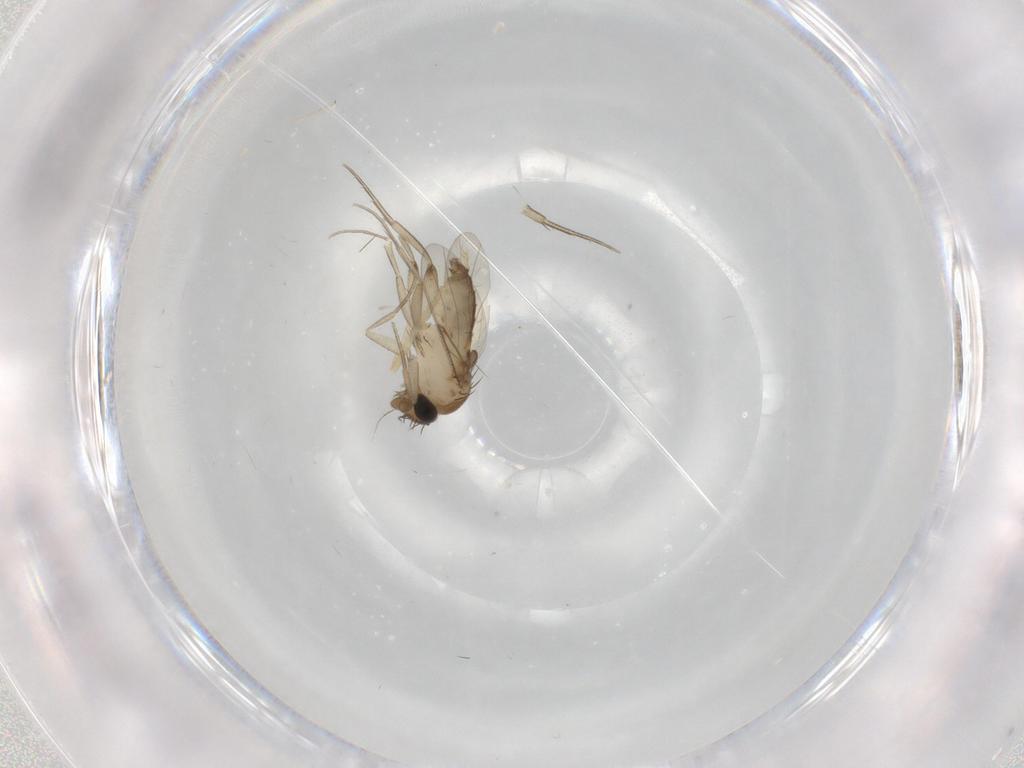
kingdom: Animalia
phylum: Arthropoda
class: Insecta
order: Diptera
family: Phoridae
